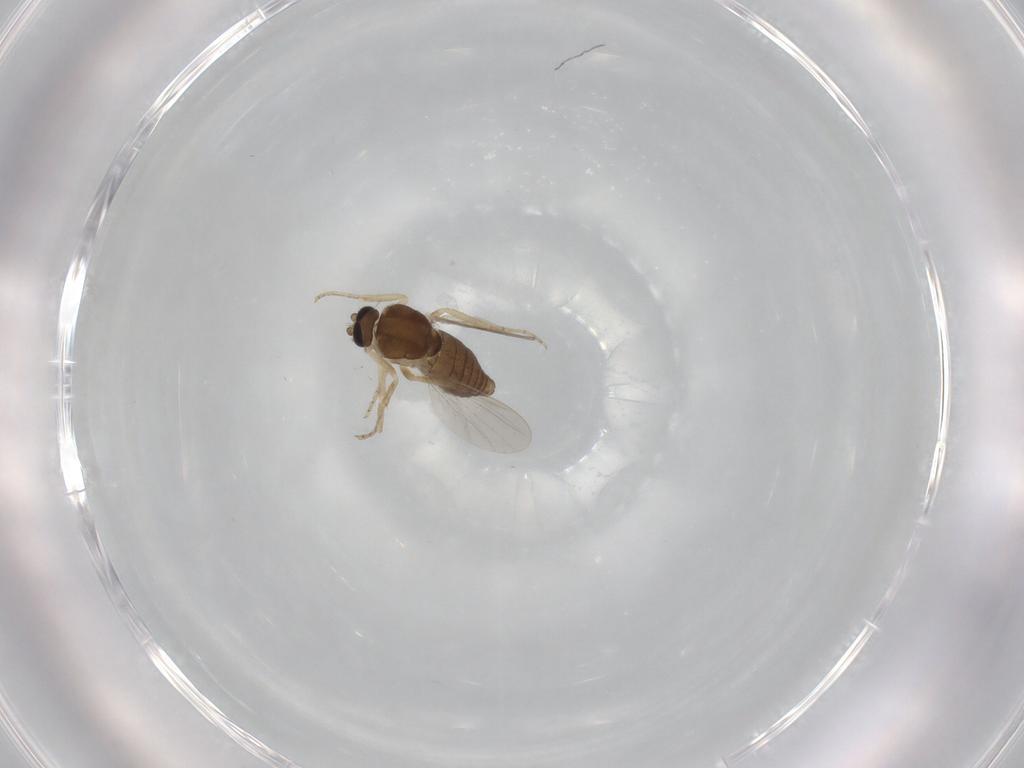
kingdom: Animalia
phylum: Arthropoda
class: Insecta
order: Diptera
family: Ceratopogonidae
